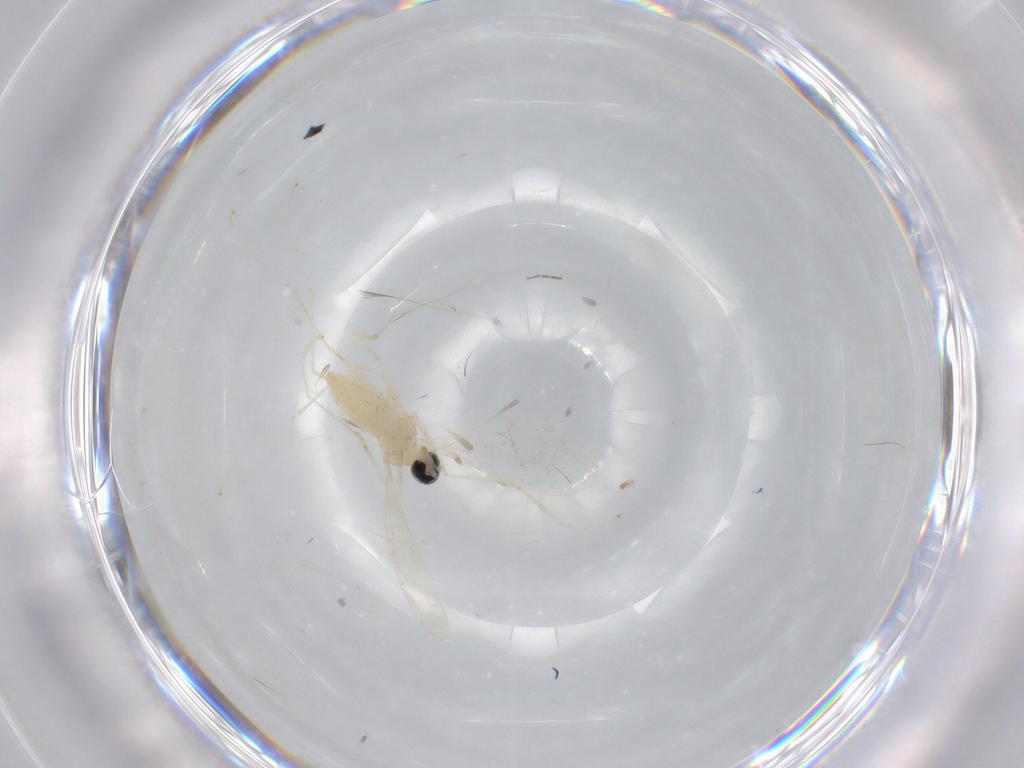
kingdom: Animalia
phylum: Arthropoda
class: Insecta
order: Diptera
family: Cecidomyiidae
